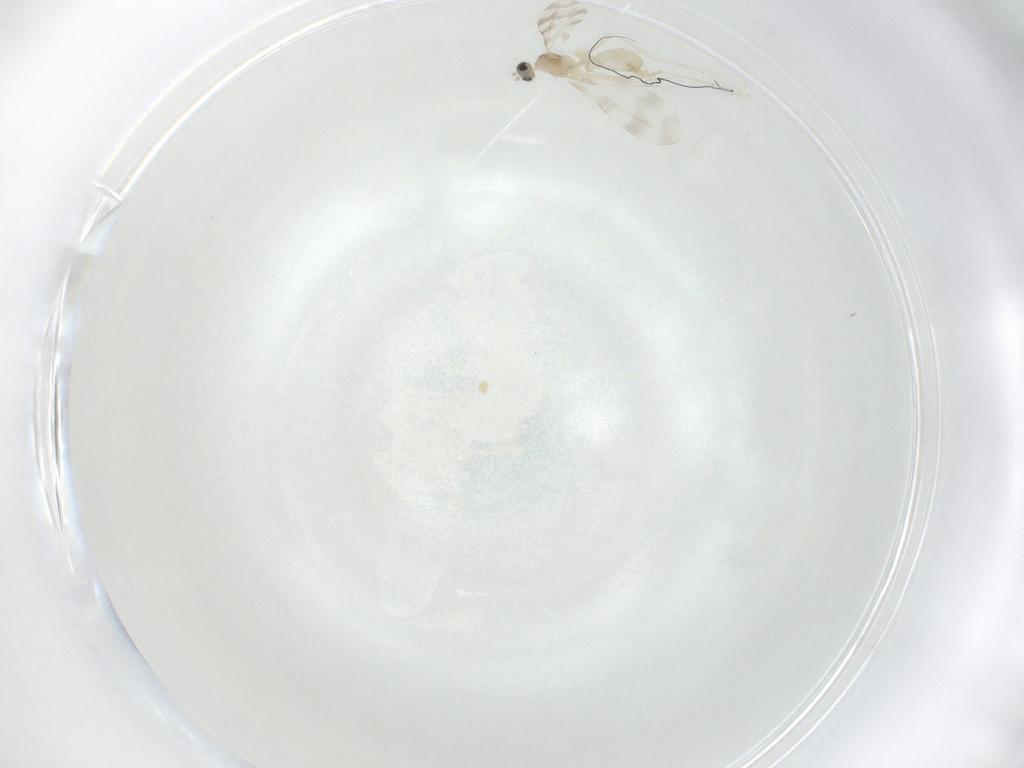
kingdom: Animalia
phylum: Arthropoda
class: Insecta
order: Diptera
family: Cecidomyiidae
